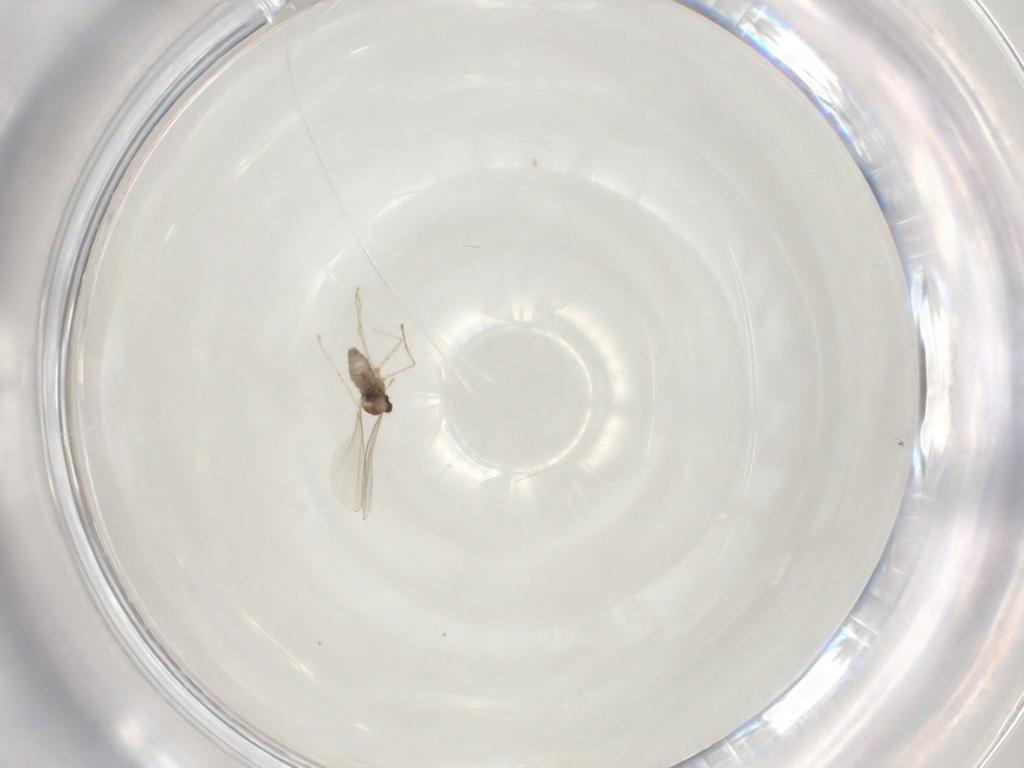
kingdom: Animalia
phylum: Arthropoda
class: Insecta
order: Diptera
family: Cecidomyiidae
